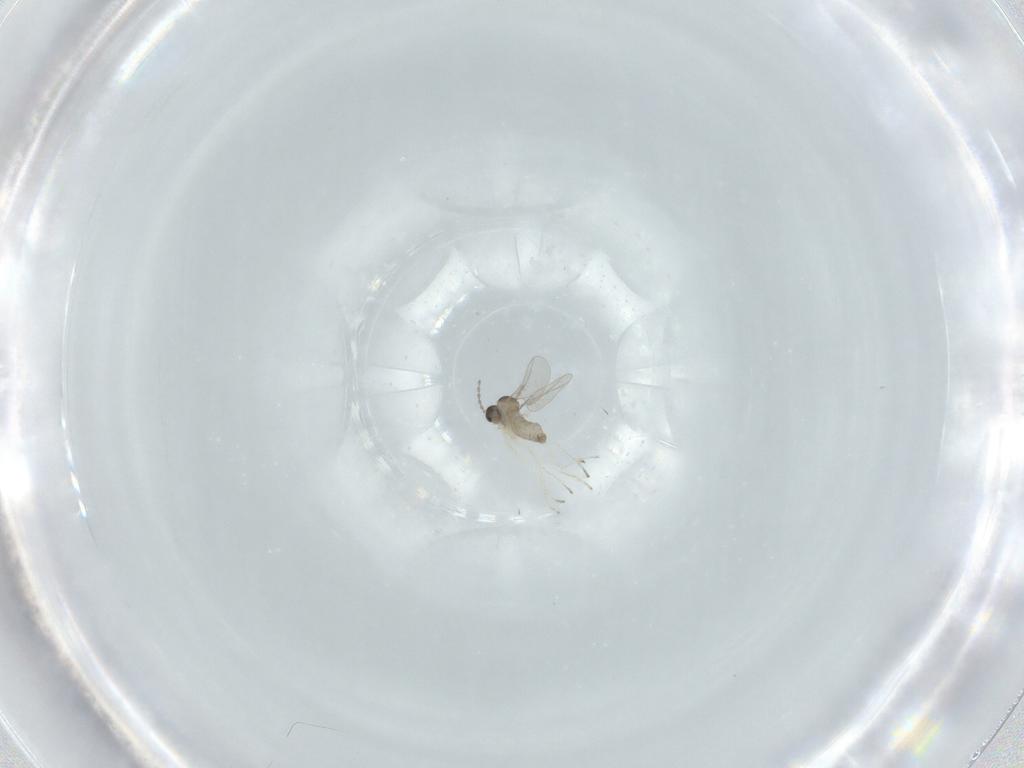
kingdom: Animalia
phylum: Arthropoda
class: Insecta
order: Diptera
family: Cecidomyiidae
